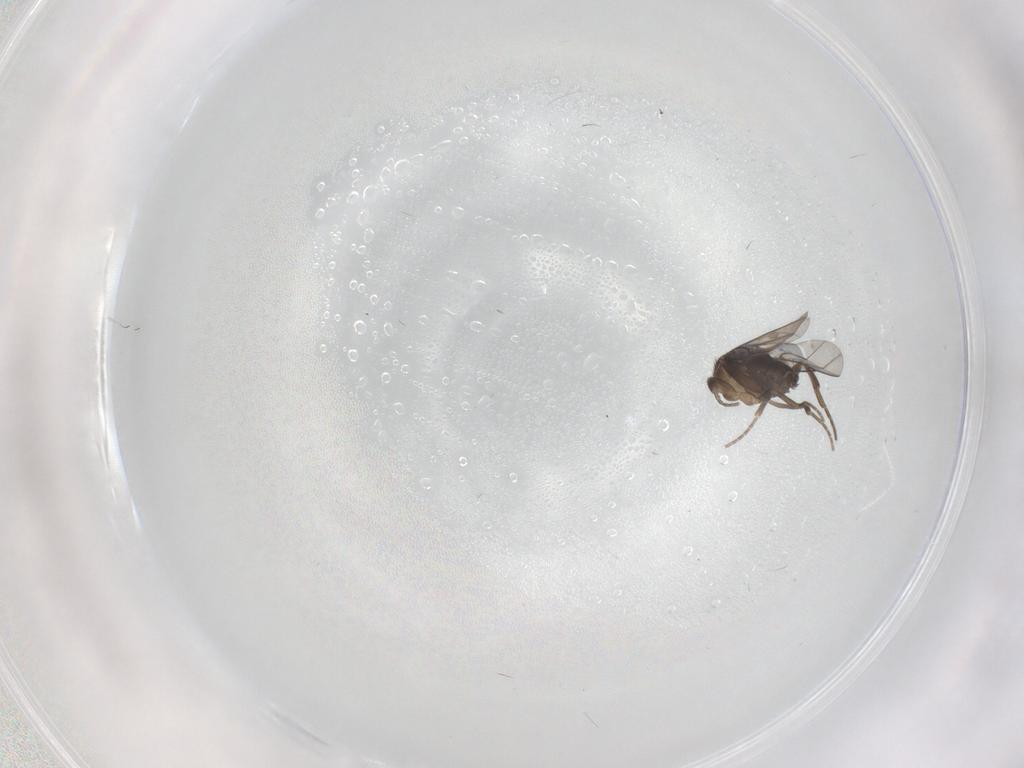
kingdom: Animalia
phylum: Arthropoda
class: Insecta
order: Diptera
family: Phoridae
